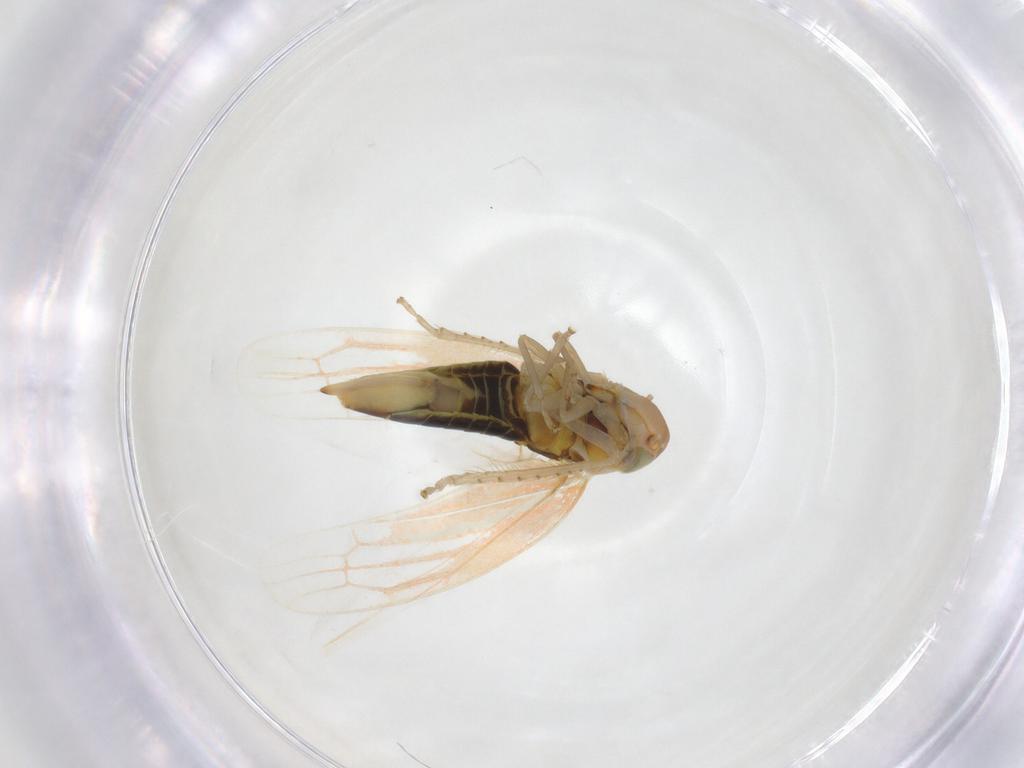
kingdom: Animalia
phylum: Arthropoda
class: Insecta
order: Hemiptera
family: Cicadellidae
